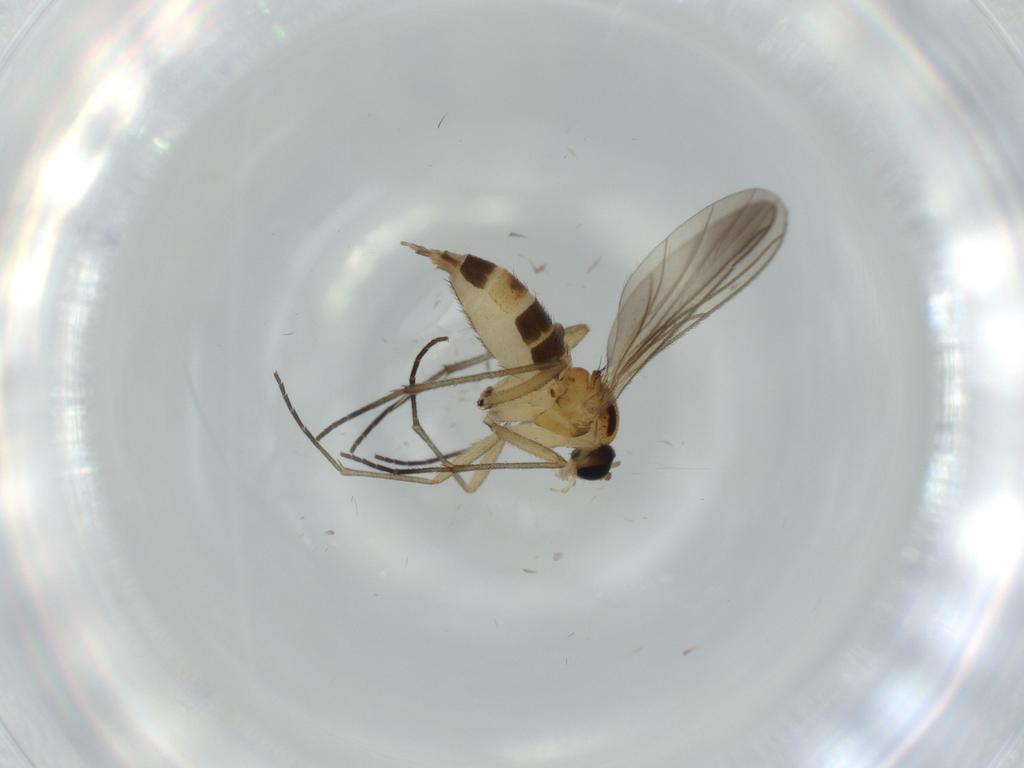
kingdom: Animalia
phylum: Arthropoda
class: Insecta
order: Diptera
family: Sciaridae
